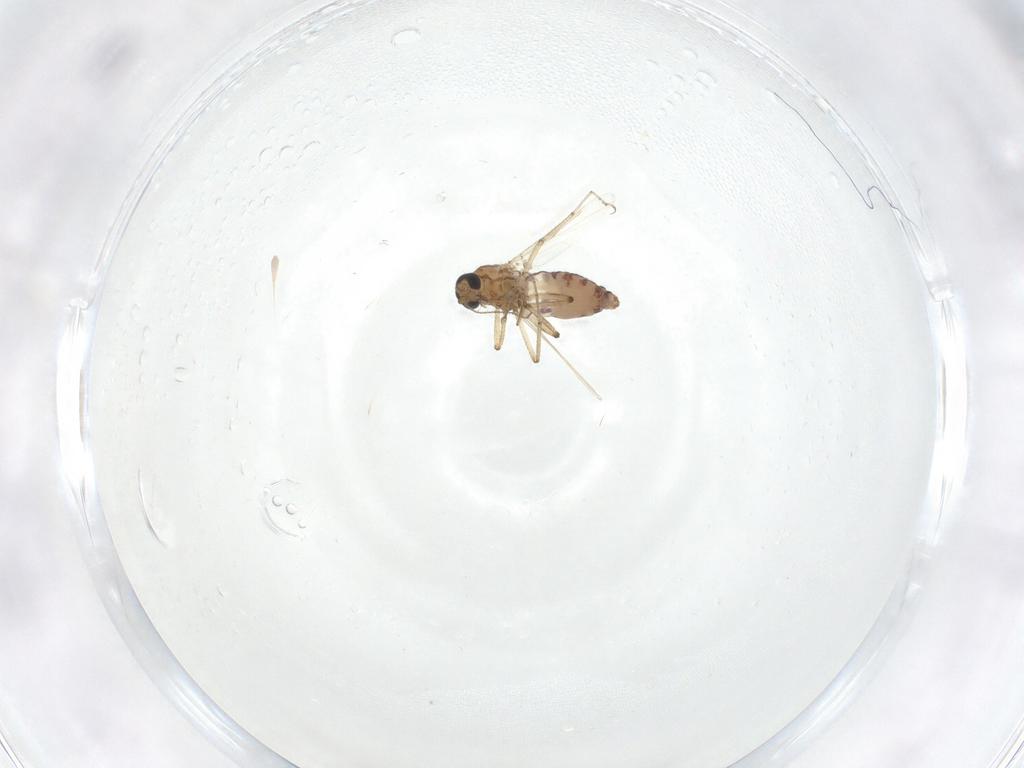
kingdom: Animalia
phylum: Arthropoda
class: Insecta
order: Diptera
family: Ceratopogonidae
